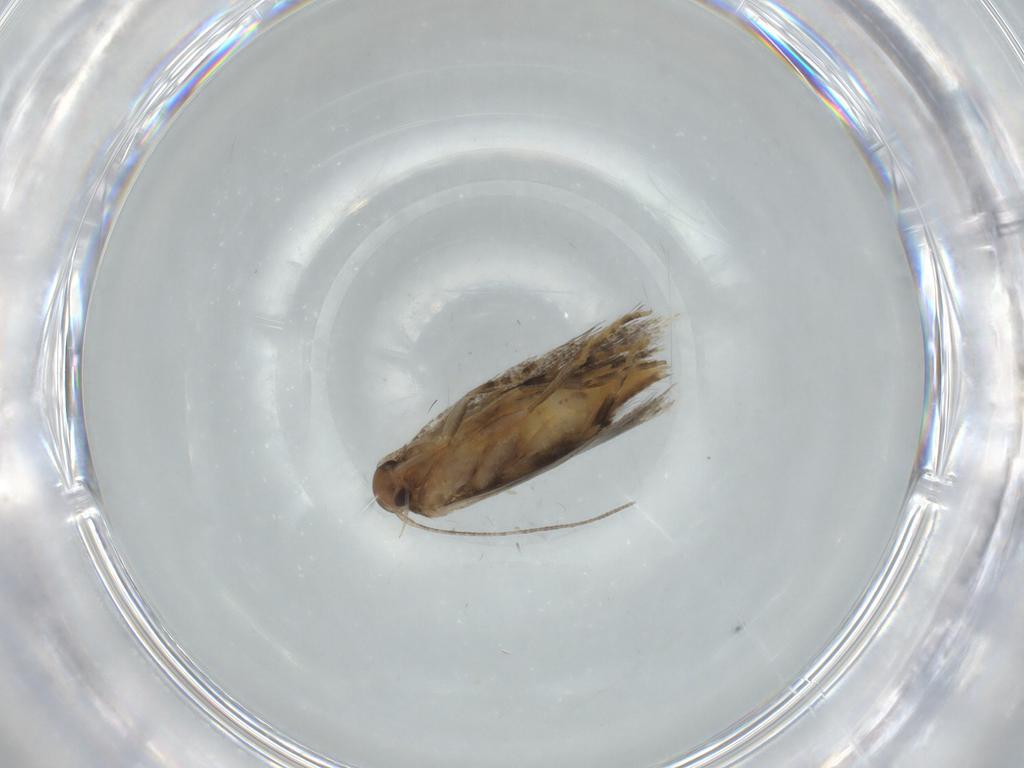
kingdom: Animalia
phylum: Arthropoda
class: Insecta
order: Lepidoptera
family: Elachistidae
